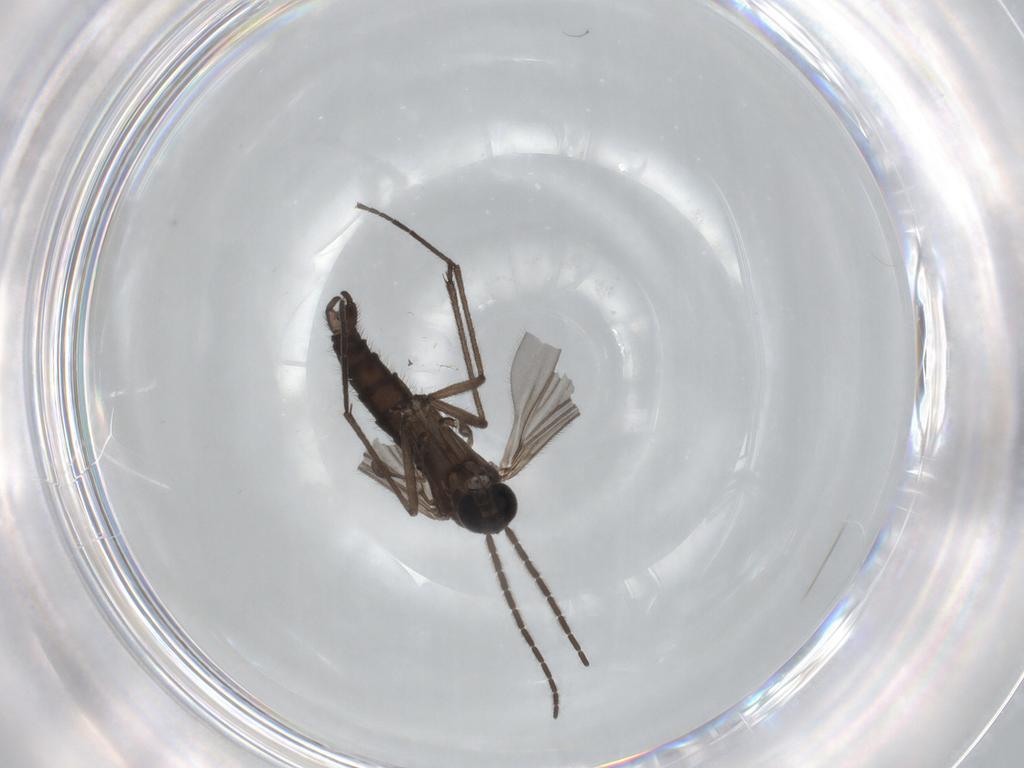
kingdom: Animalia
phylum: Arthropoda
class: Insecta
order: Diptera
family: Sciaridae
